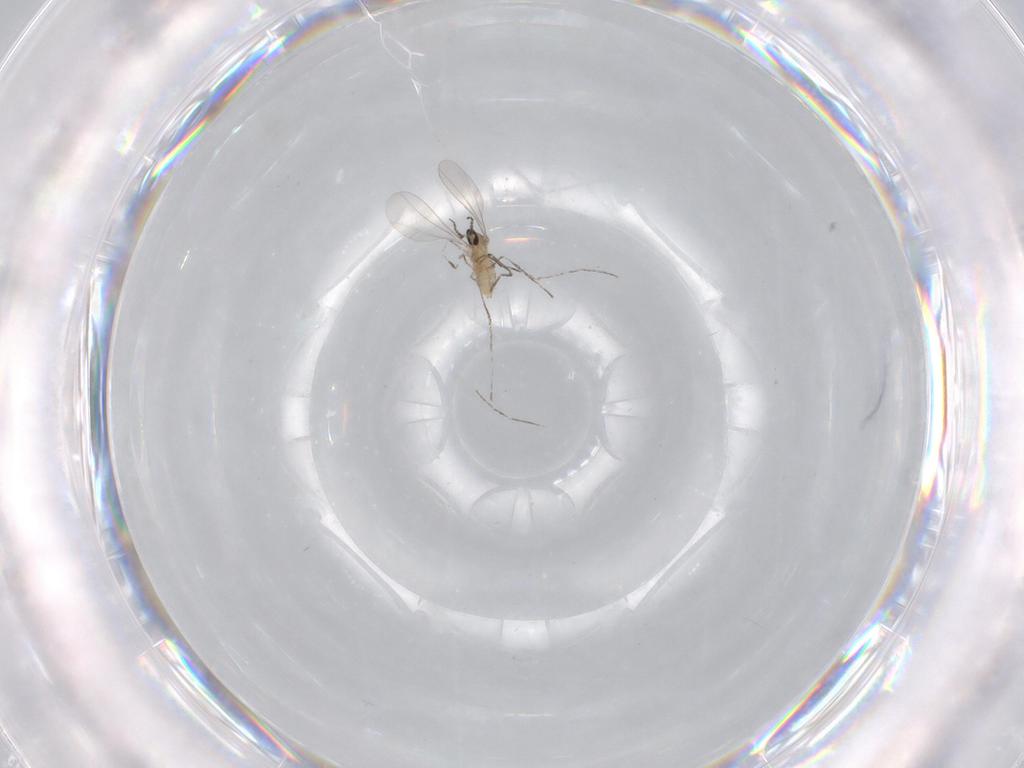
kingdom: Animalia
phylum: Arthropoda
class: Insecta
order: Diptera
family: Cecidomyiidae
